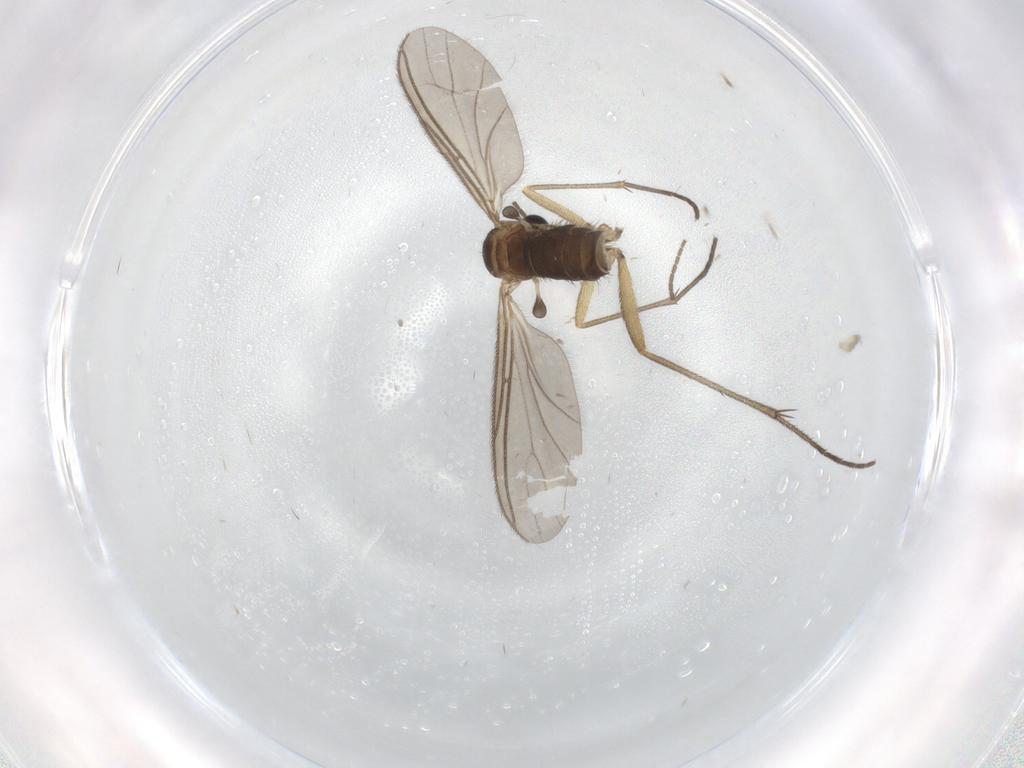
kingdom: Animalia
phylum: Arthropoda
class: Insecta
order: Diptera
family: Sciaridae
